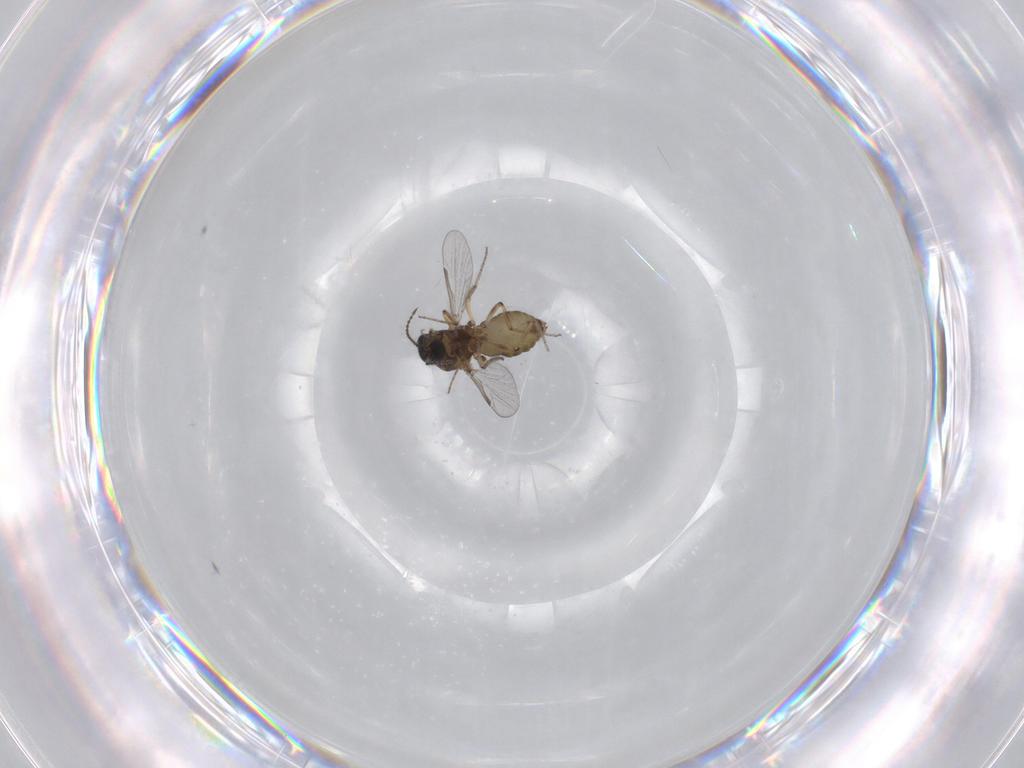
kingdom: Animalia
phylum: Arthropoda
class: Insecta
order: Diptera
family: Ceratopogonidae
